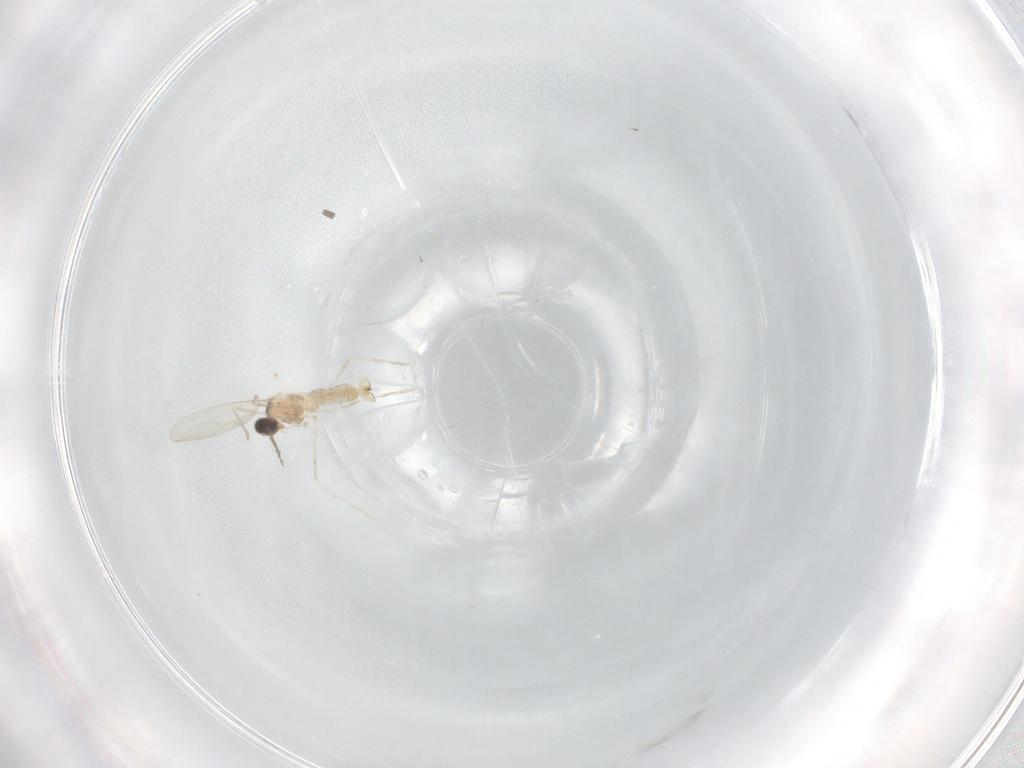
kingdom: Animalia
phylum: Arthropoda
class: Insecta
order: Diptera
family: Cecidomyiidae
